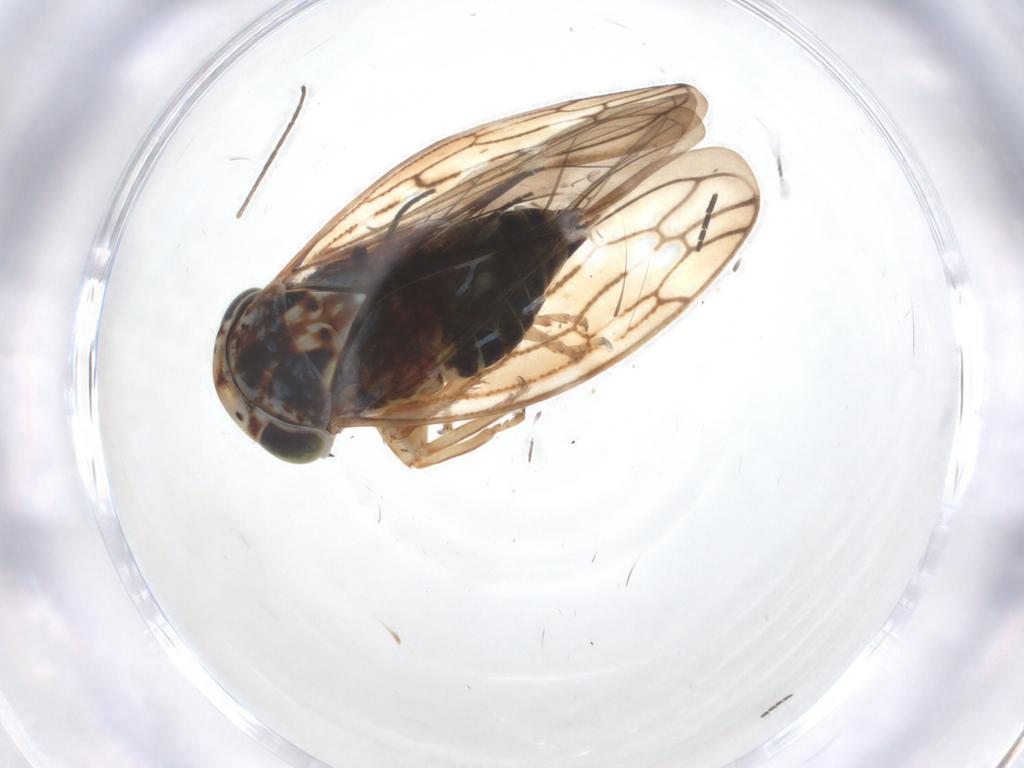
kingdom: Animalia
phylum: Arthropoda
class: Insecta
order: Hemiptera
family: Cicadellidae
